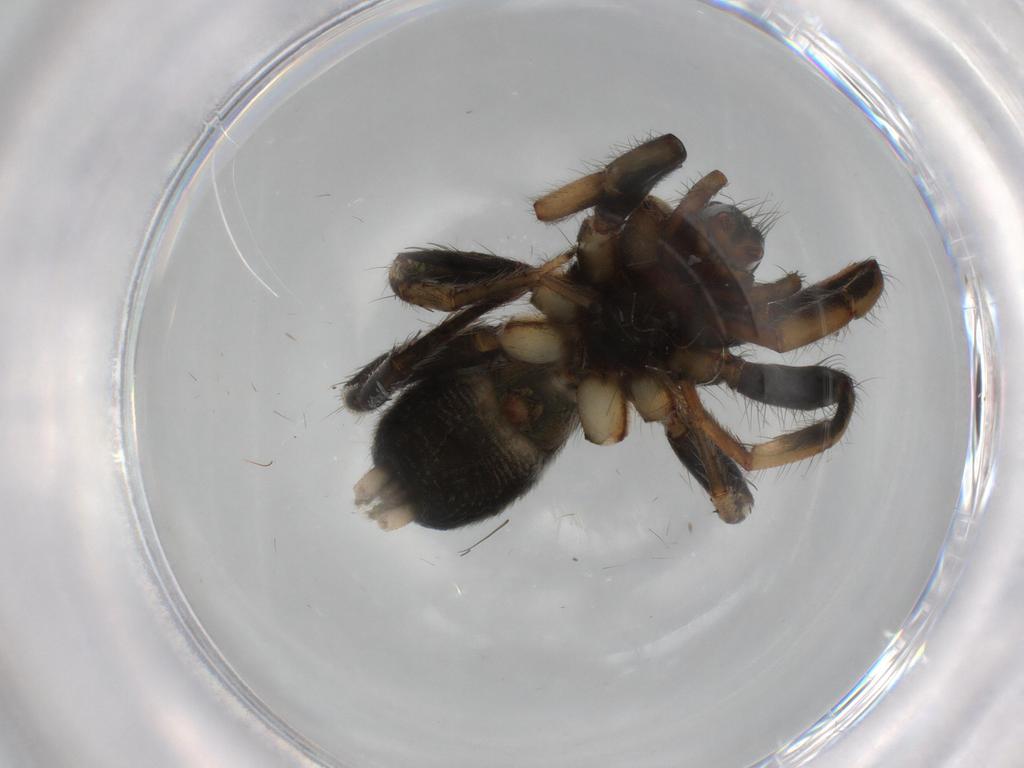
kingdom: Animalia
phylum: Arthropoda
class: Arachnida
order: Araneae
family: Gnaphosidae
